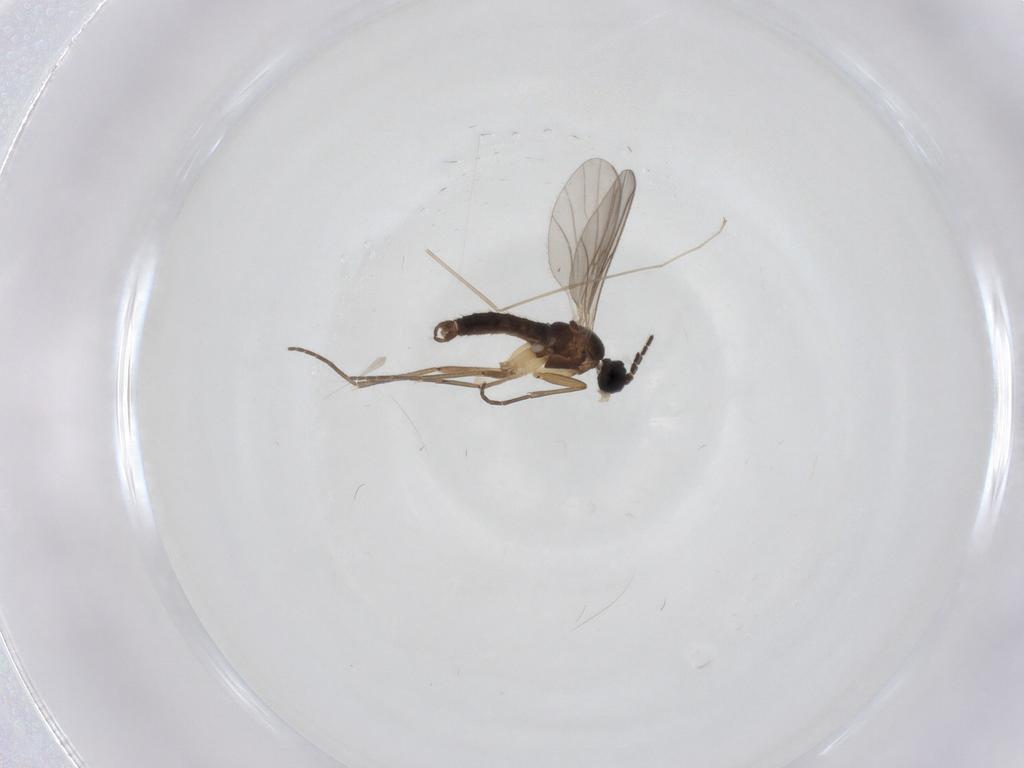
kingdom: Animalia
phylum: Arthropoda
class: Insecta
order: Diptera
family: Sciaridae
